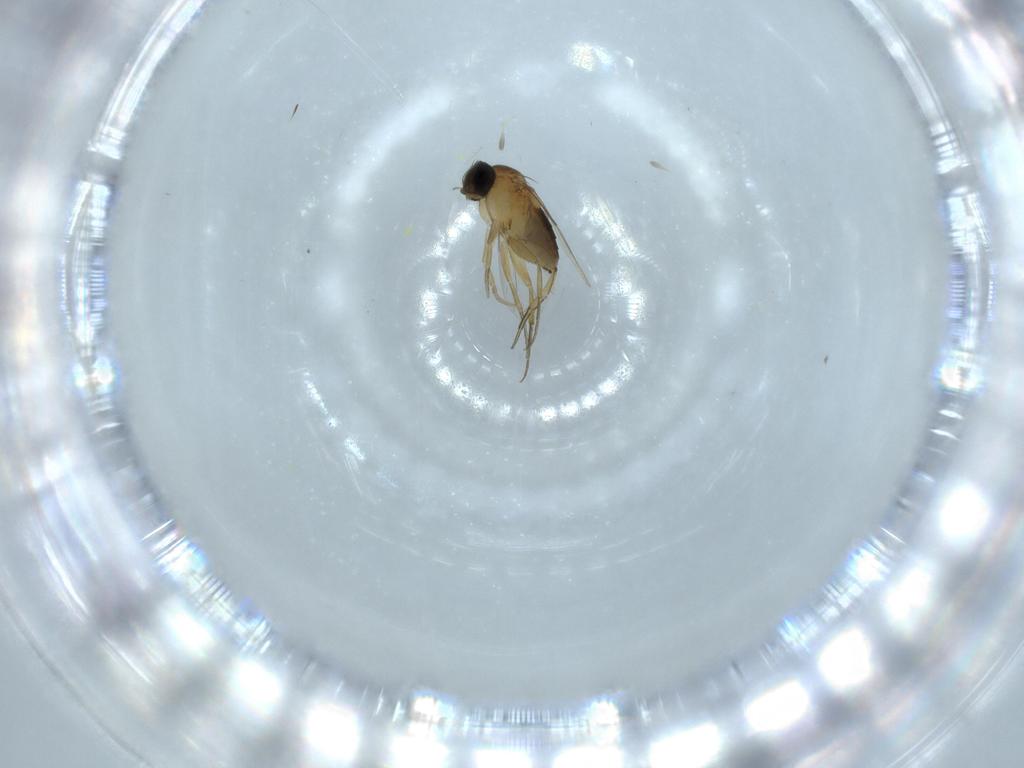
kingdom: Animalia
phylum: Arthropoda
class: Insecta
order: Diptera
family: Phoridae
